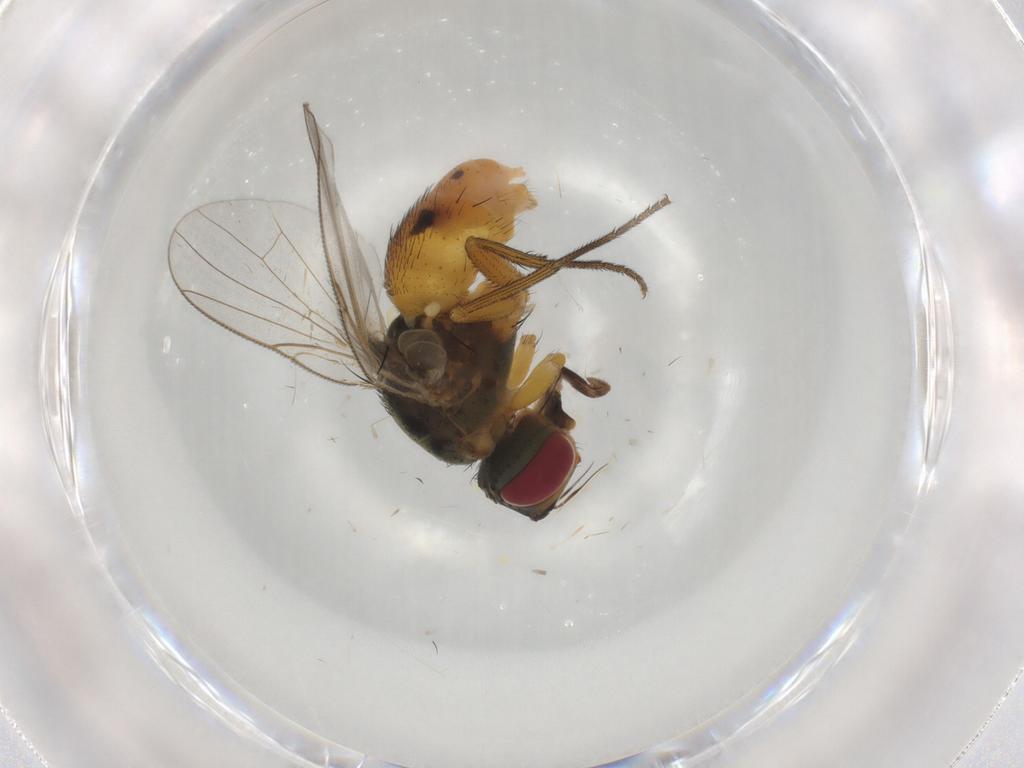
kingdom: Animalia
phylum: Arthropoda
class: Insecta
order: Diptera
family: Muscidae
